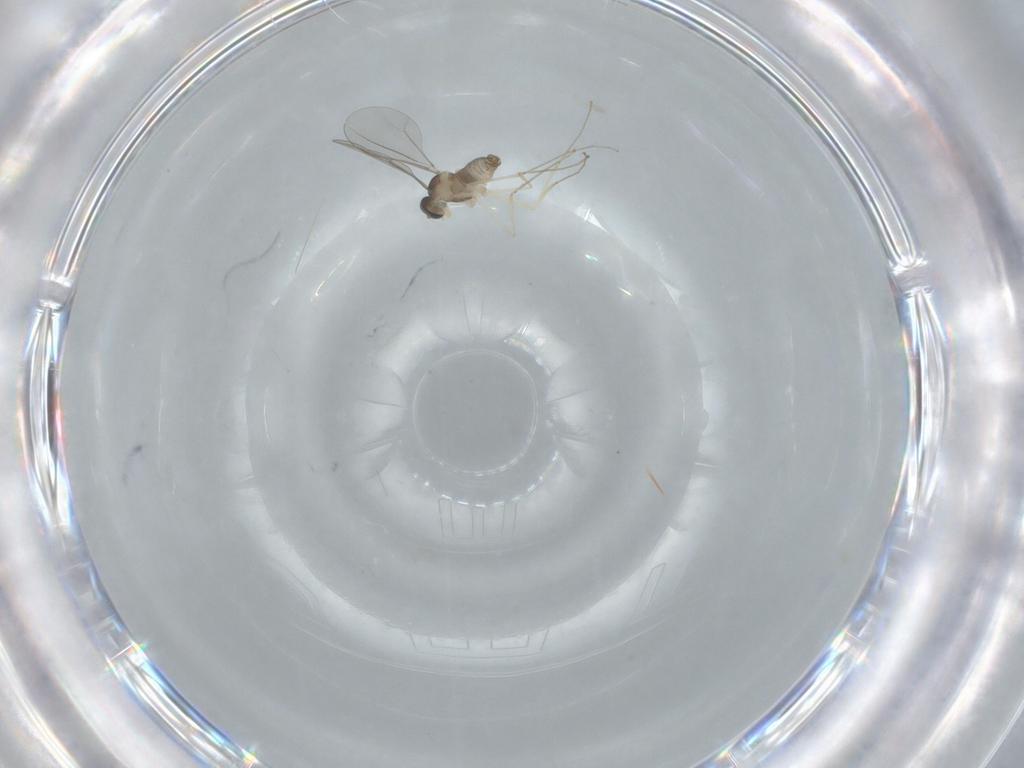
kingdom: Animalia
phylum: Arthropoda
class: Insecta
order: Diptera
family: Cecidomyiidae
